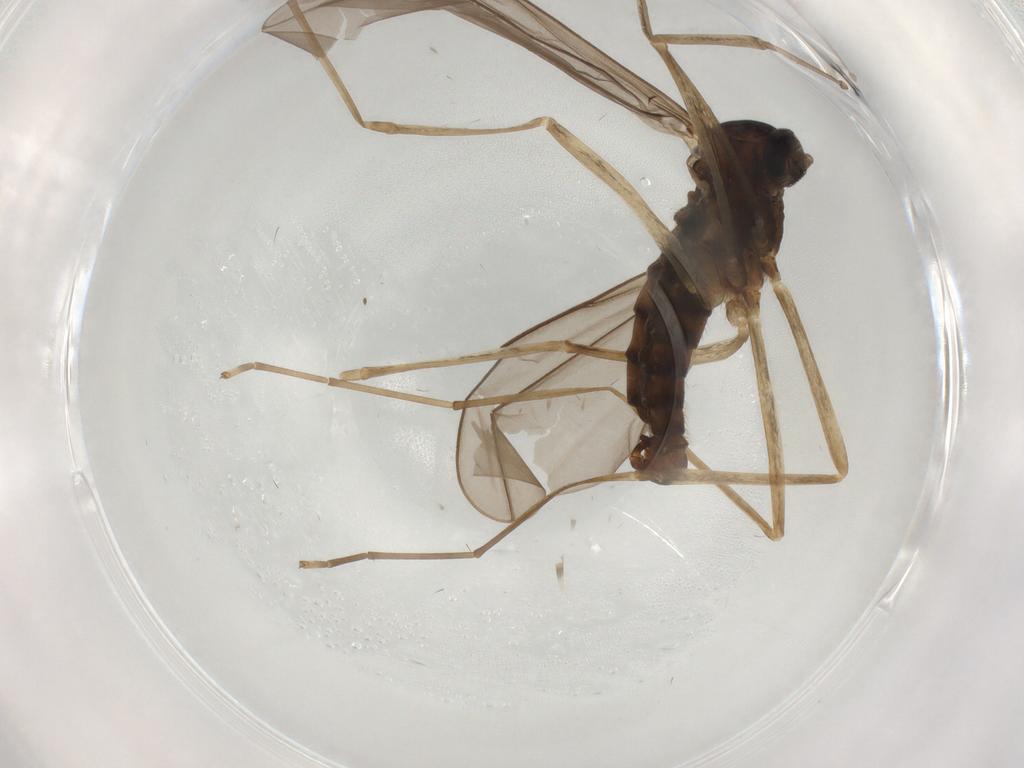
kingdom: Animalia
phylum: Arthropoda
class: Insecta
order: Diptera
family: Cecidomyiidae
